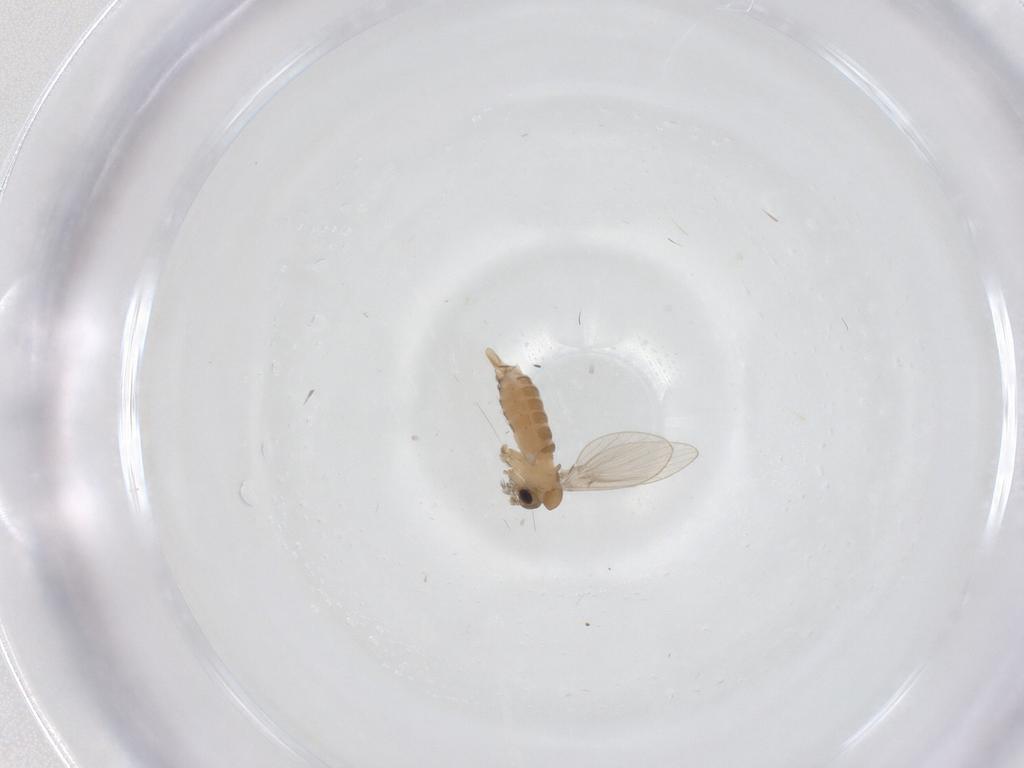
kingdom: Animalia
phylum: Arthropoda
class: Insecta
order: Diptera
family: Psychodidae
